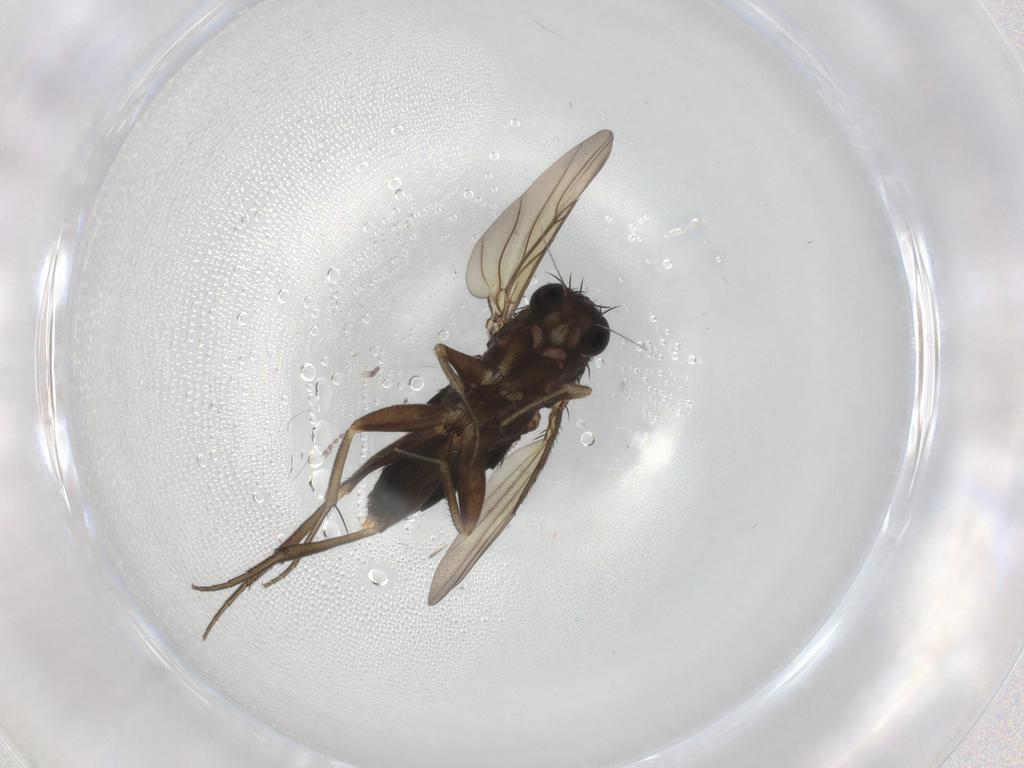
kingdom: Animalia
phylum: Arthropoda
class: Insecta
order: Diptera
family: Phoridae
